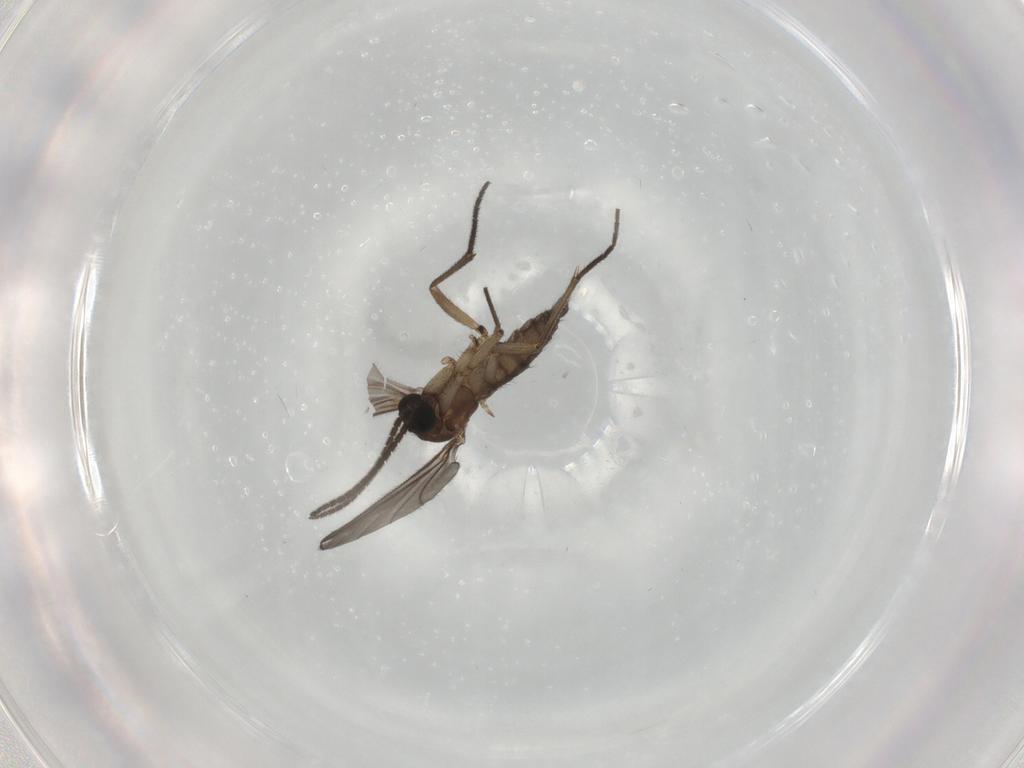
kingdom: Animalia
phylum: Arthropoda
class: Insecta
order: Diptera
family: Sciaridae
